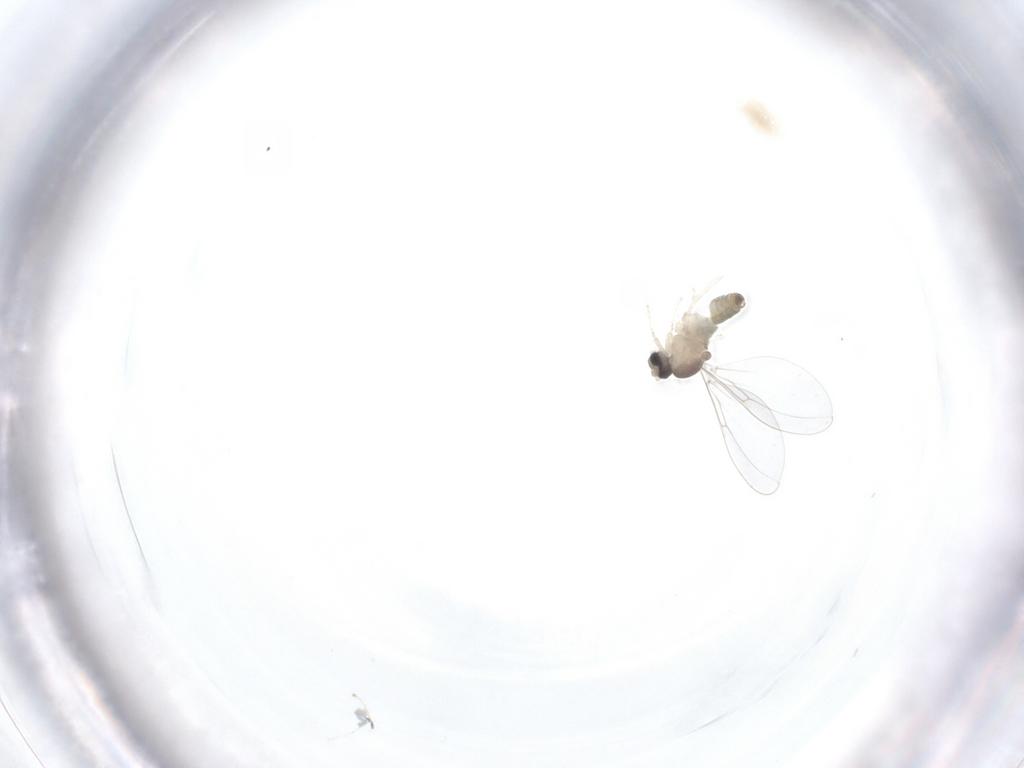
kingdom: Animalia
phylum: Arthropoda
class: Insecta
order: Diptera
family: Cecidomyiidae
